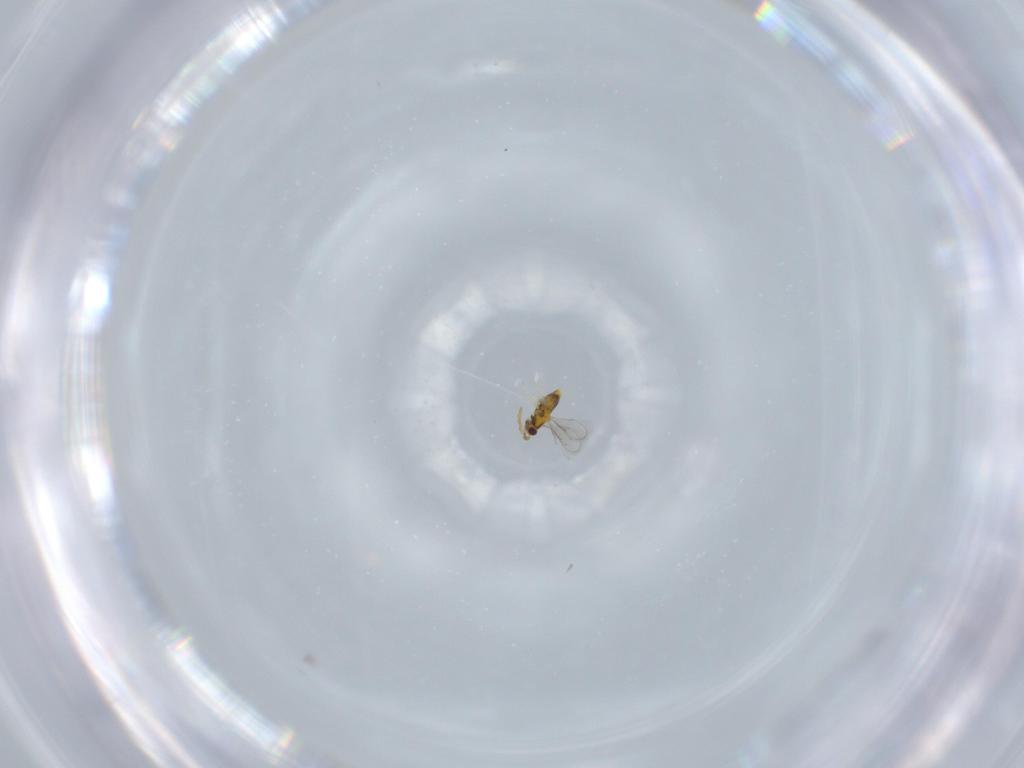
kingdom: Animalia
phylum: Arthropoda
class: Insecta
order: Hymenoptera
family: Aphelinidae
